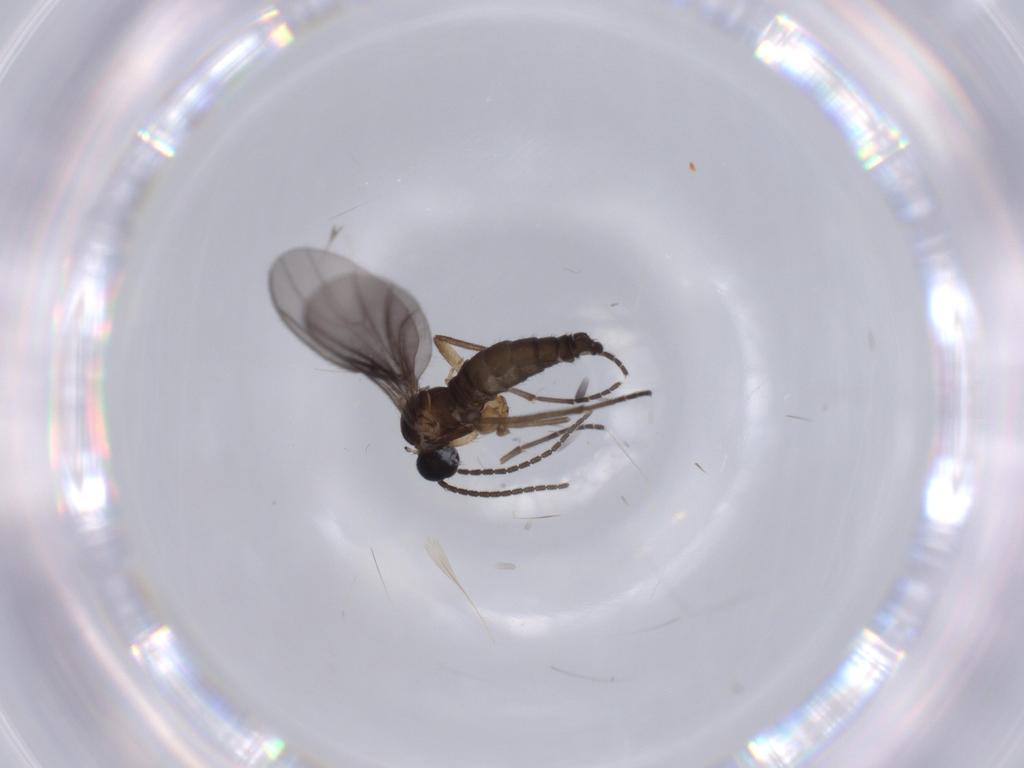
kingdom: Animalia
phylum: Arthropoda
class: Insecta
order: Diptera
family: Sciaridae
